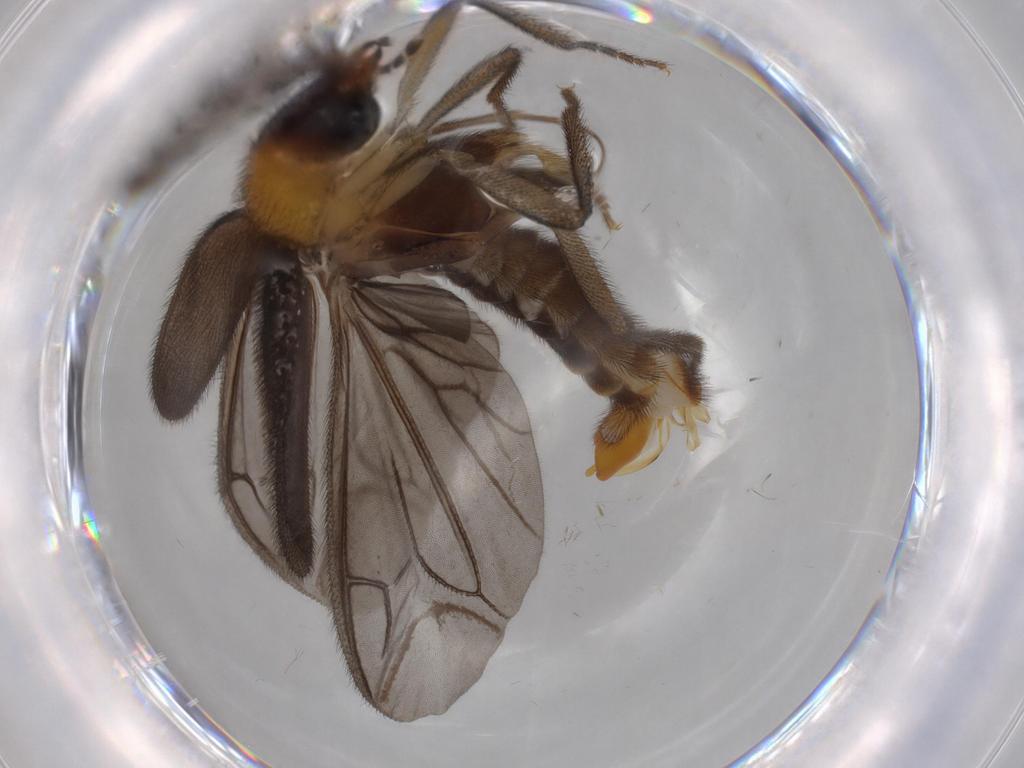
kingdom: Animalia
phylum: Arthropoda
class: Insecta
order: Coleoptera
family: Phengodidae
